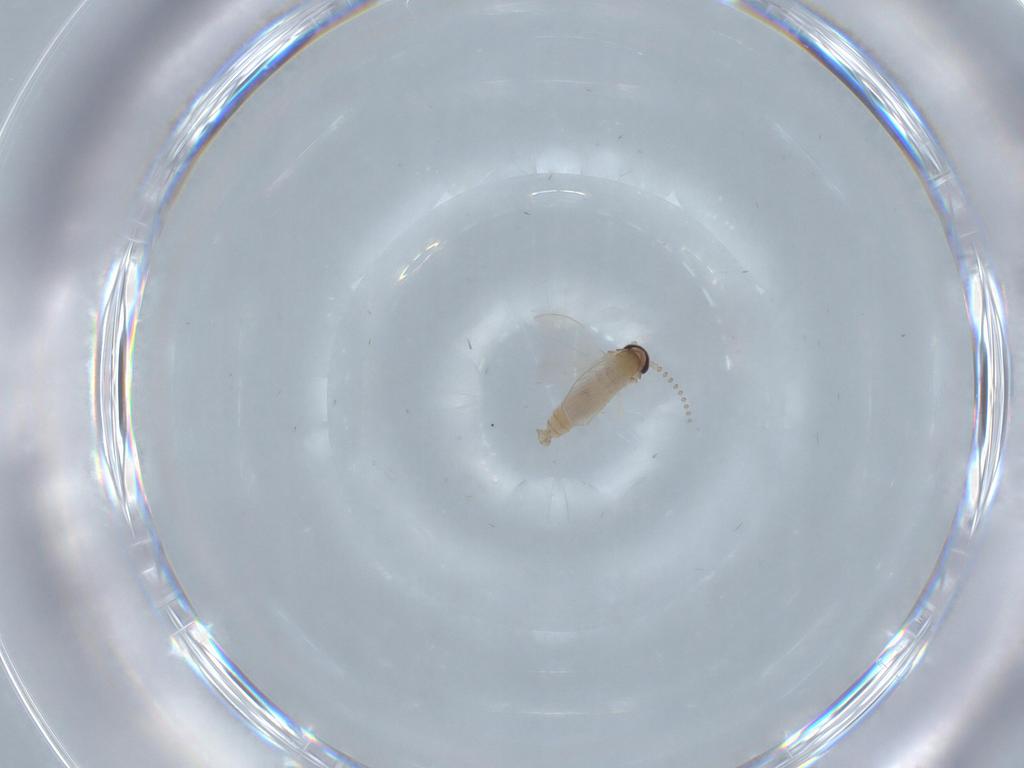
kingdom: Animalia
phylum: Arthropoda
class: Insecta
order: Diptera
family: Psychodidae
